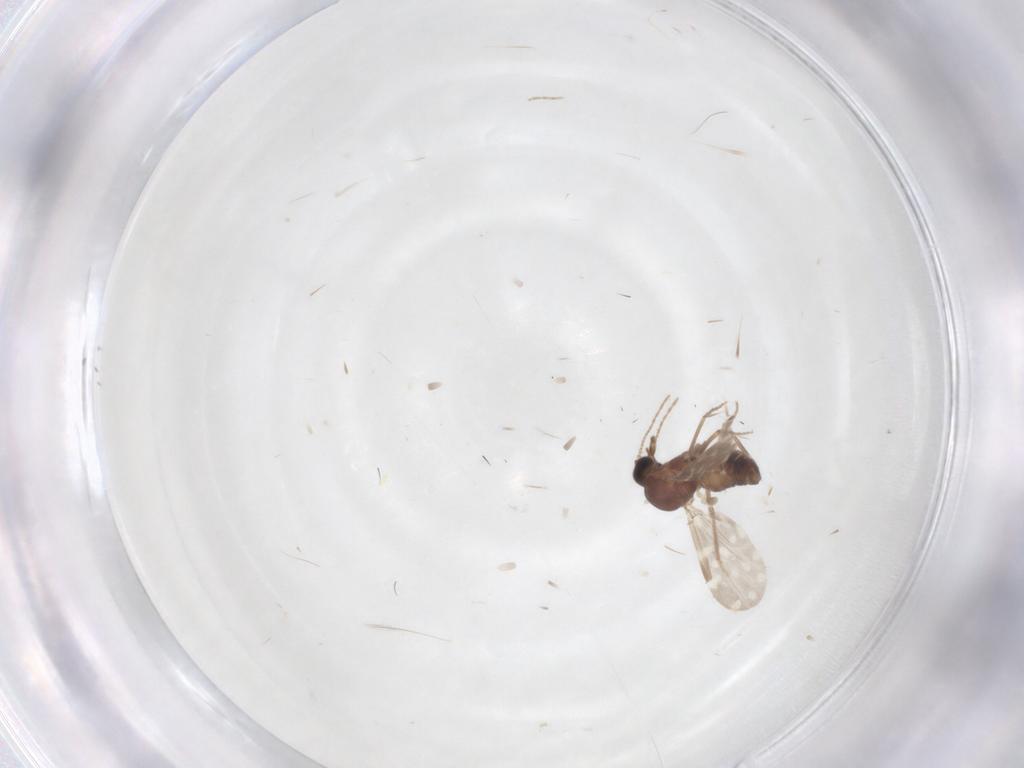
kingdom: Animalia
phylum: Arthropoda
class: Insecta
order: Diptera
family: Ceratopogonidae
